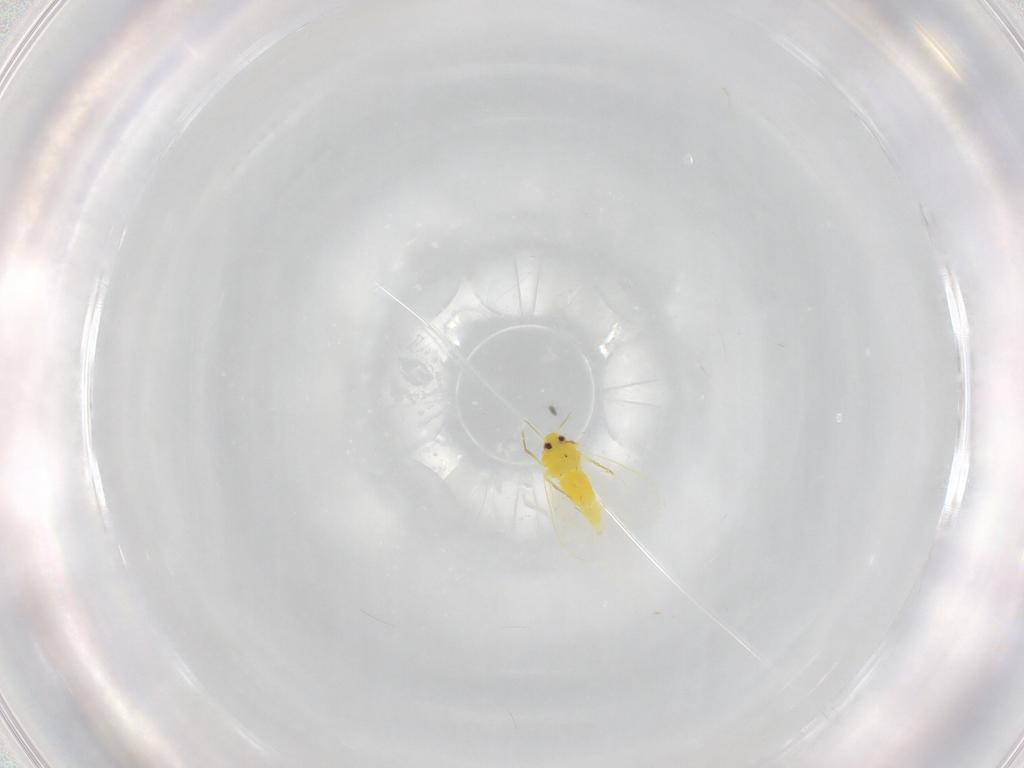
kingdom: Animalia
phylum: Arthropoda
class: Insecta
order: Hemiptera
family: Aleyrodidae
